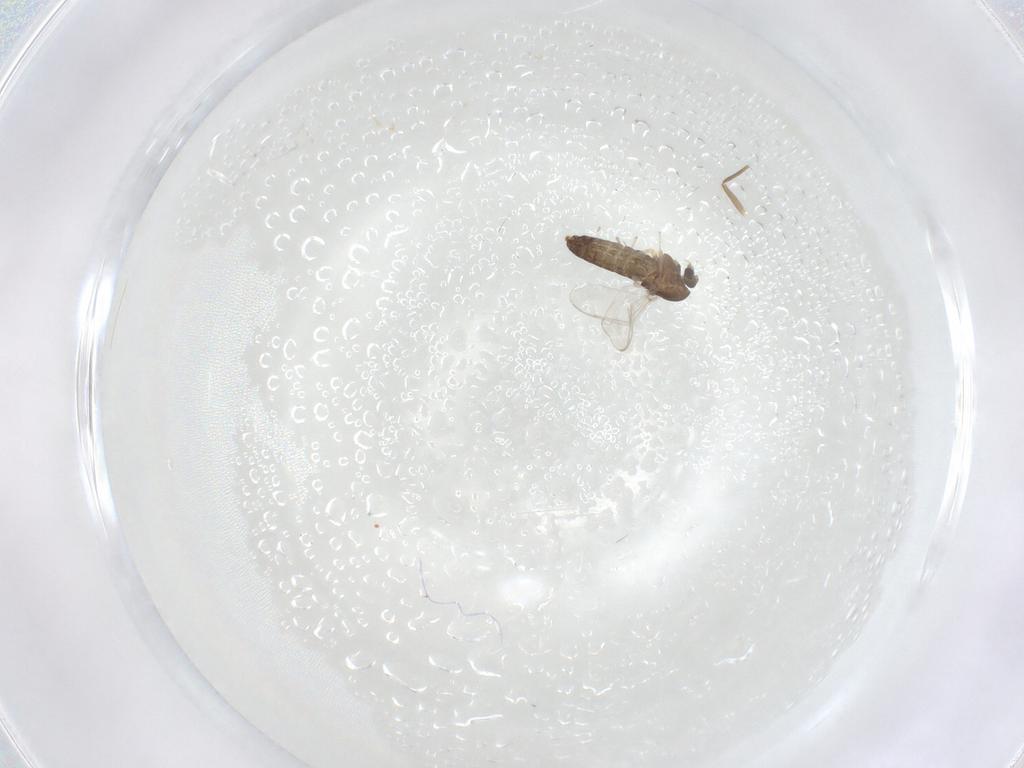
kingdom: Animalia
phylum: Arthropoda
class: Insecta
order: Diptera
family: Chironomidae
